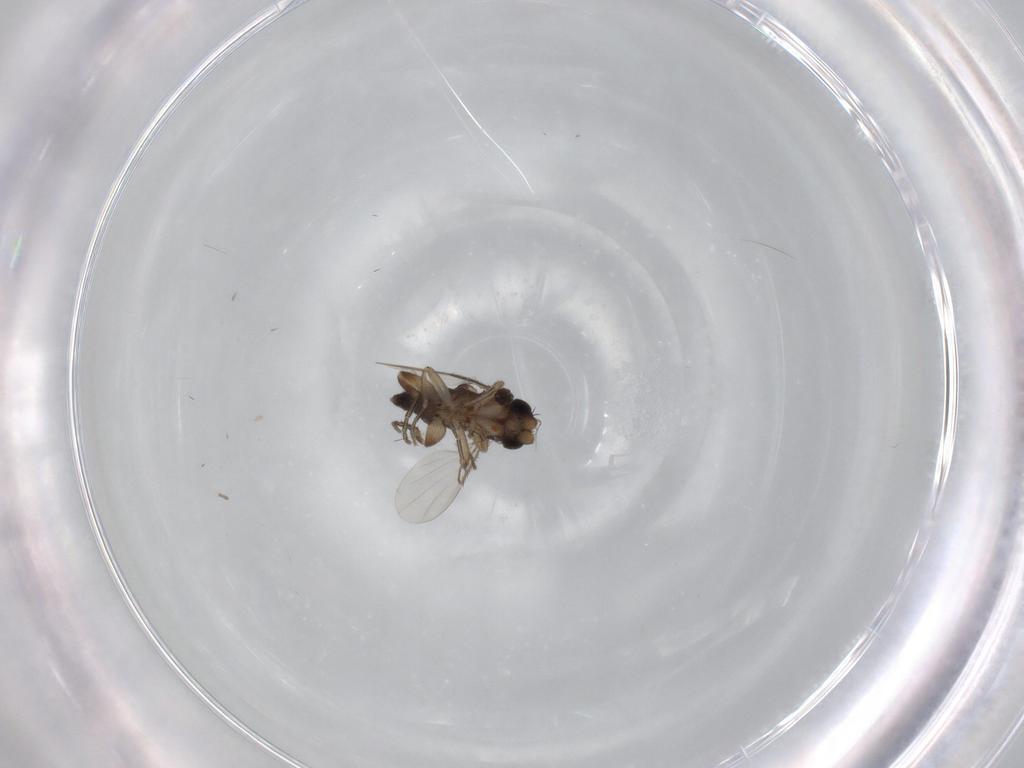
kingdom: Animalia
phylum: Arthropoda
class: Insecta
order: Diptera
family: Phoridae
